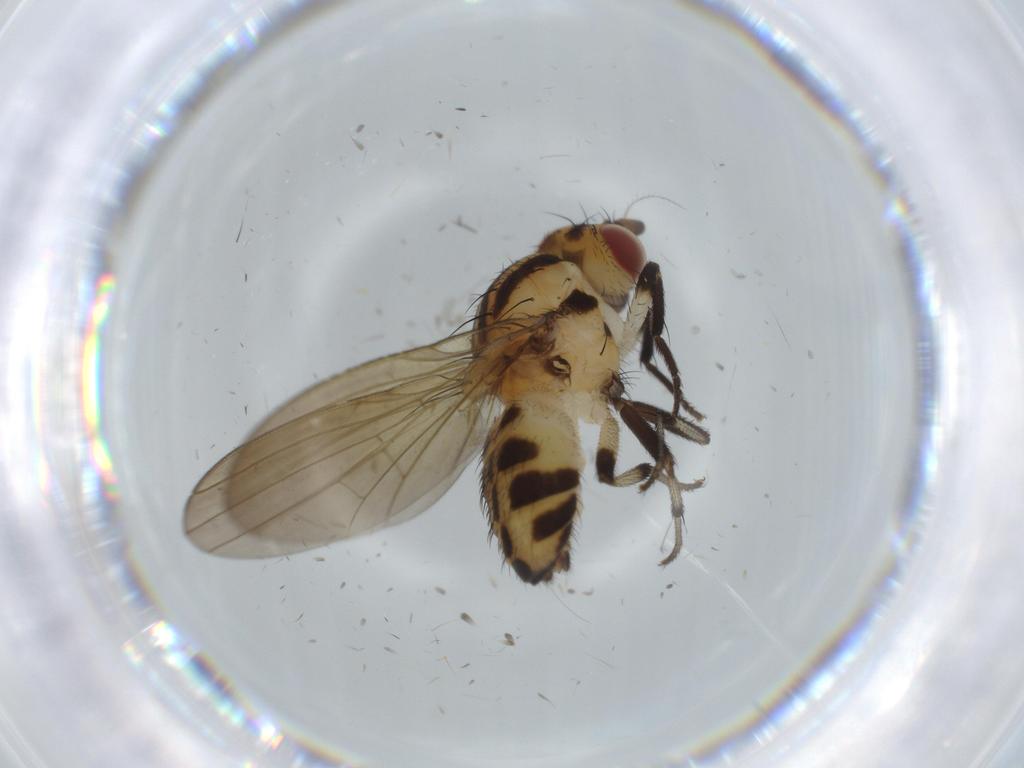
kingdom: Animalia
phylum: Arthropoda
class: Insecta
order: Diptera
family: Lauxaniidae
